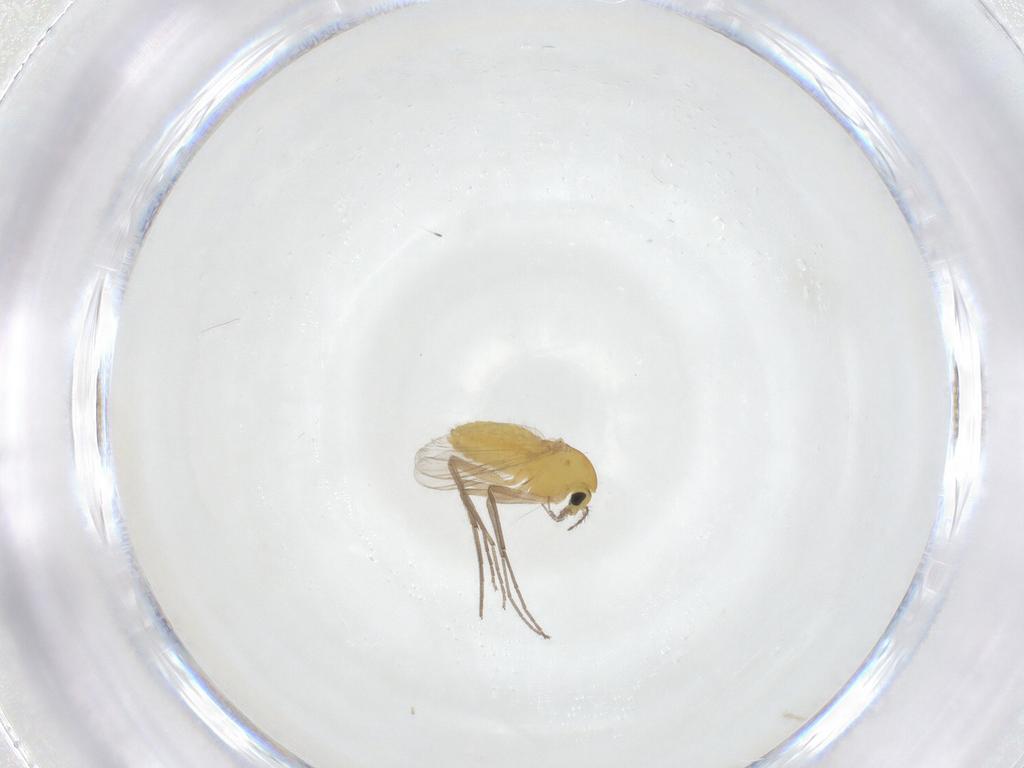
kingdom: Animalia
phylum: Arthropoda
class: Insecta
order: Diptera
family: Chironomidae
